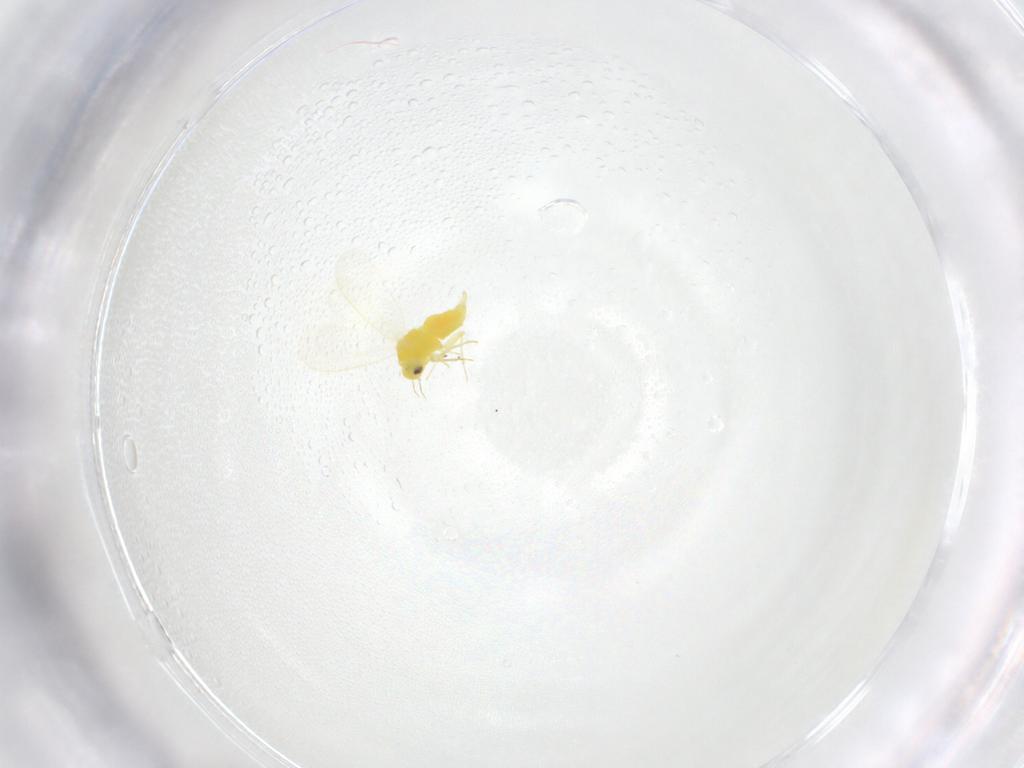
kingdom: Animalia
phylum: Arthropoda
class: Insecta
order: Hemiptera
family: Aleyrodidae
